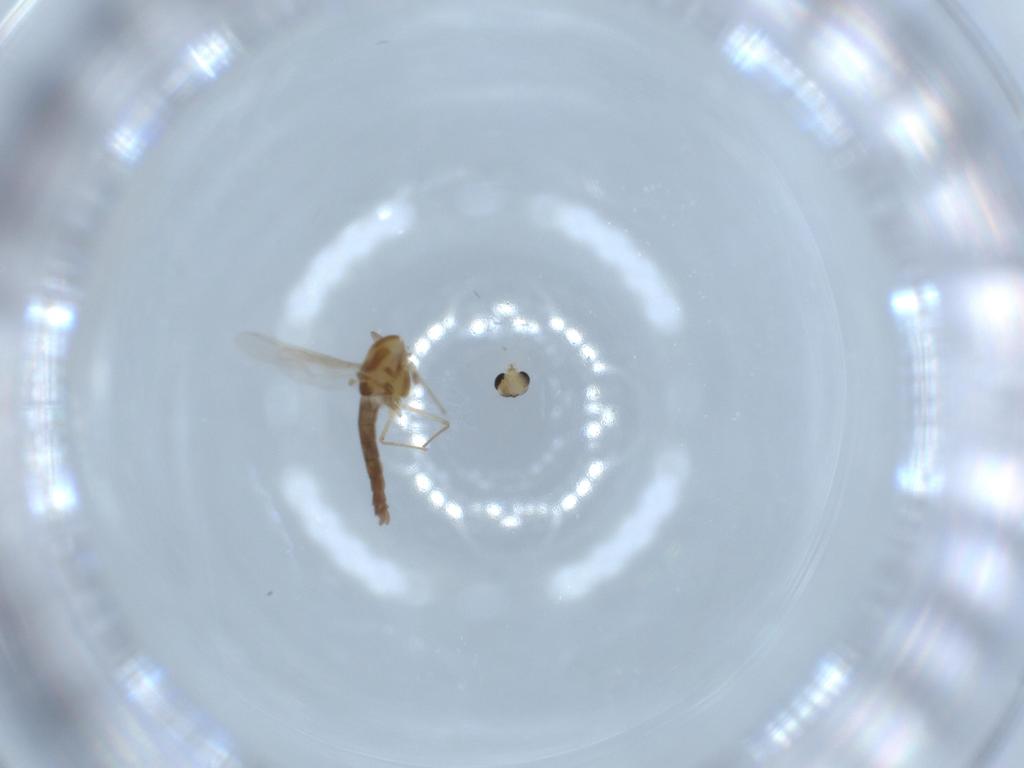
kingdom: Animalia
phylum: Arthropoda
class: Insecta
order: Diptera
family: Chironomidae
